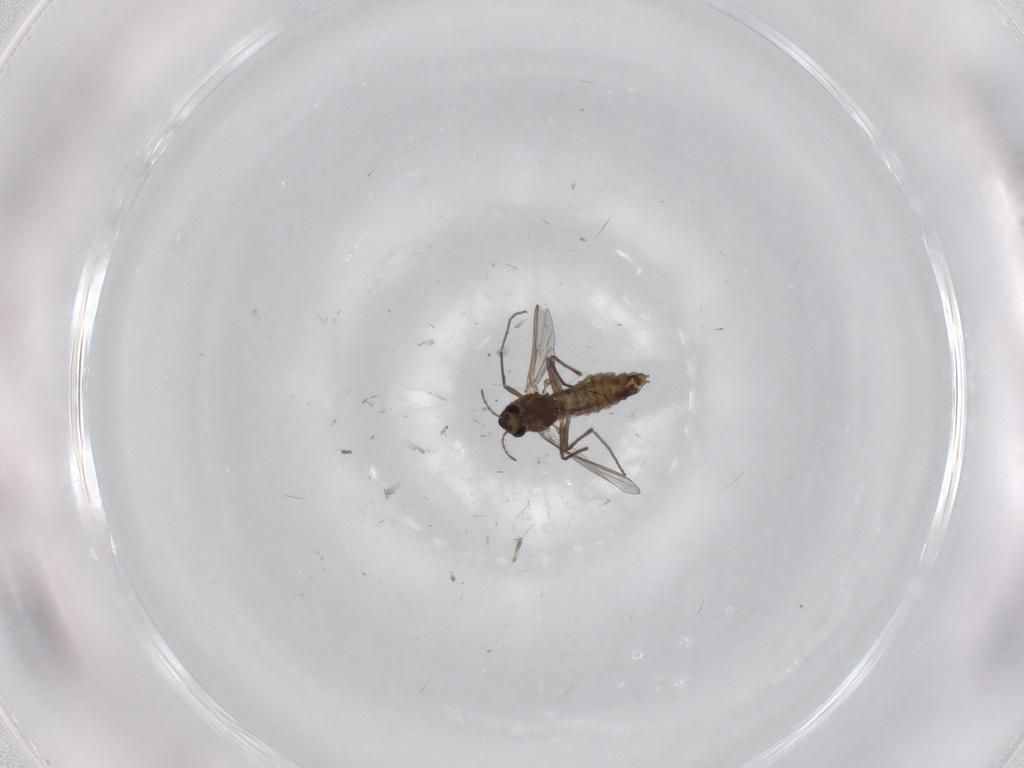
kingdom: Animalia
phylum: Arthropoda
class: Insecta
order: Diptera
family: Chironomidae
